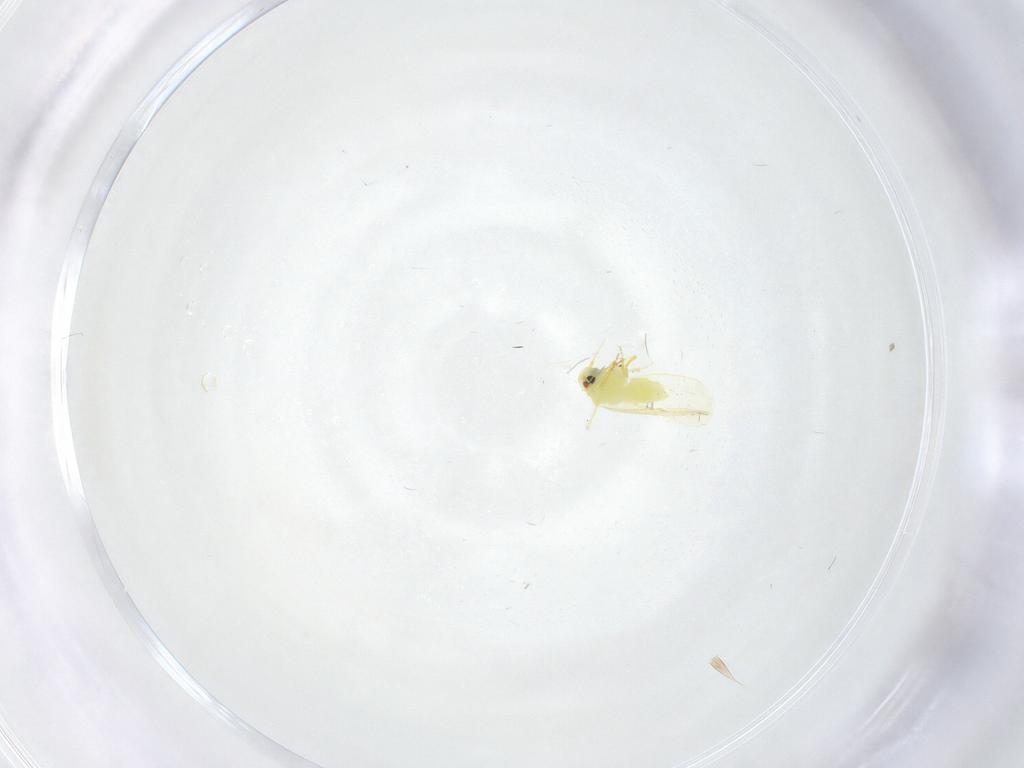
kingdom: Animalia
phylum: Arthropoda
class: Insecta
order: Hemiptera
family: Aleyrodidae
